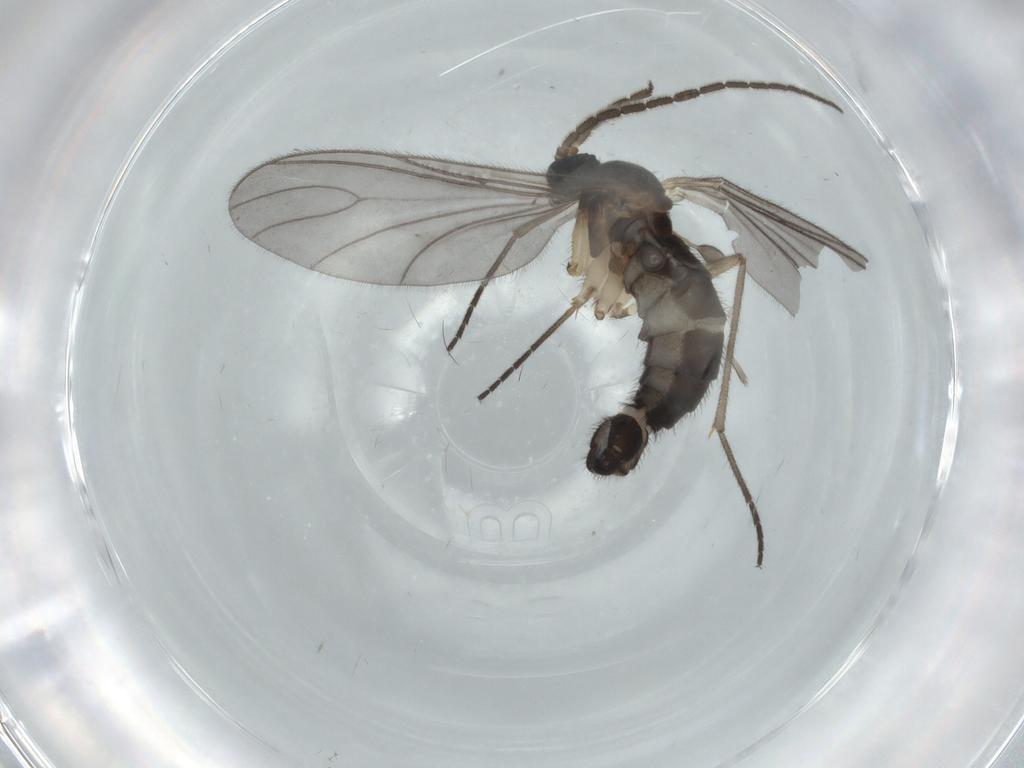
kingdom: Animalia
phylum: Arthropoda
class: Insecta
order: Diptera
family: Sciaridae
